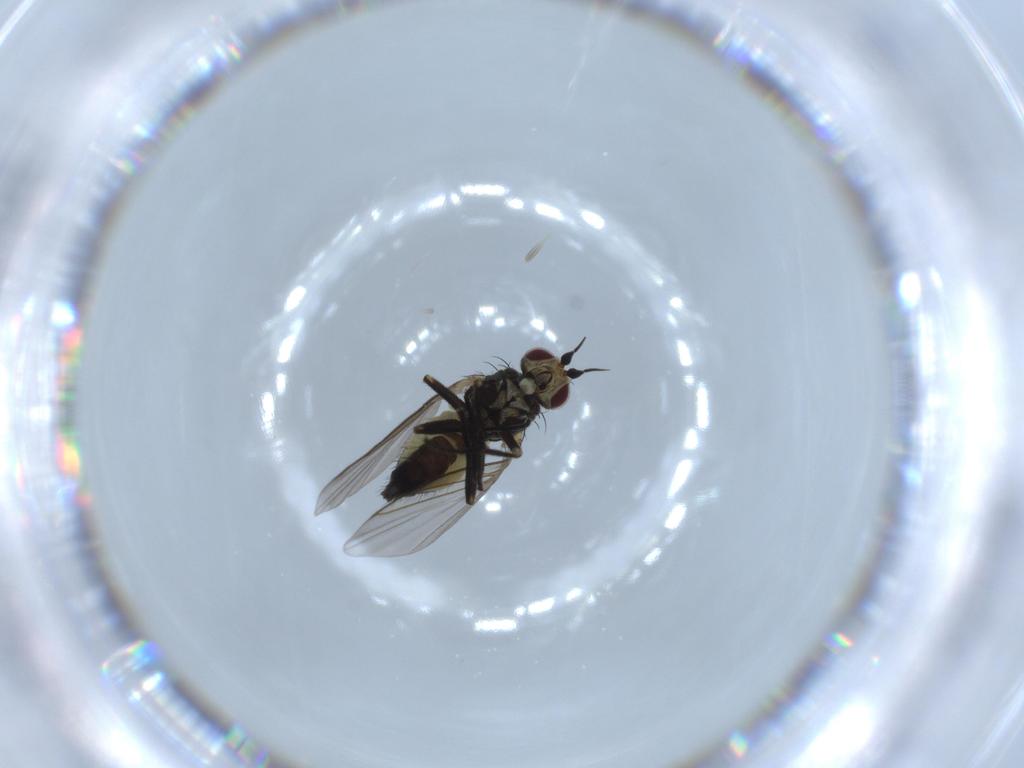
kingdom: Animalia
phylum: Arthropoda
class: Insecta
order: Diptera
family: Agromyzidae
